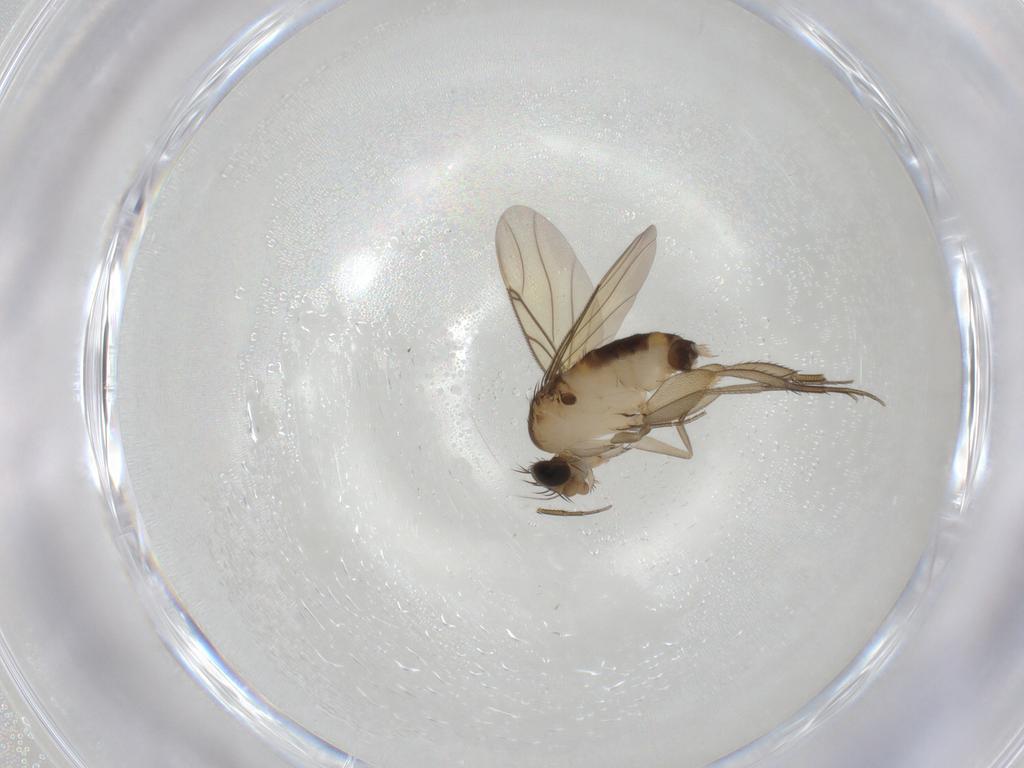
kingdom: Animalia
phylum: Arthropoda
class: Insecta
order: Diptera
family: Phoridae
